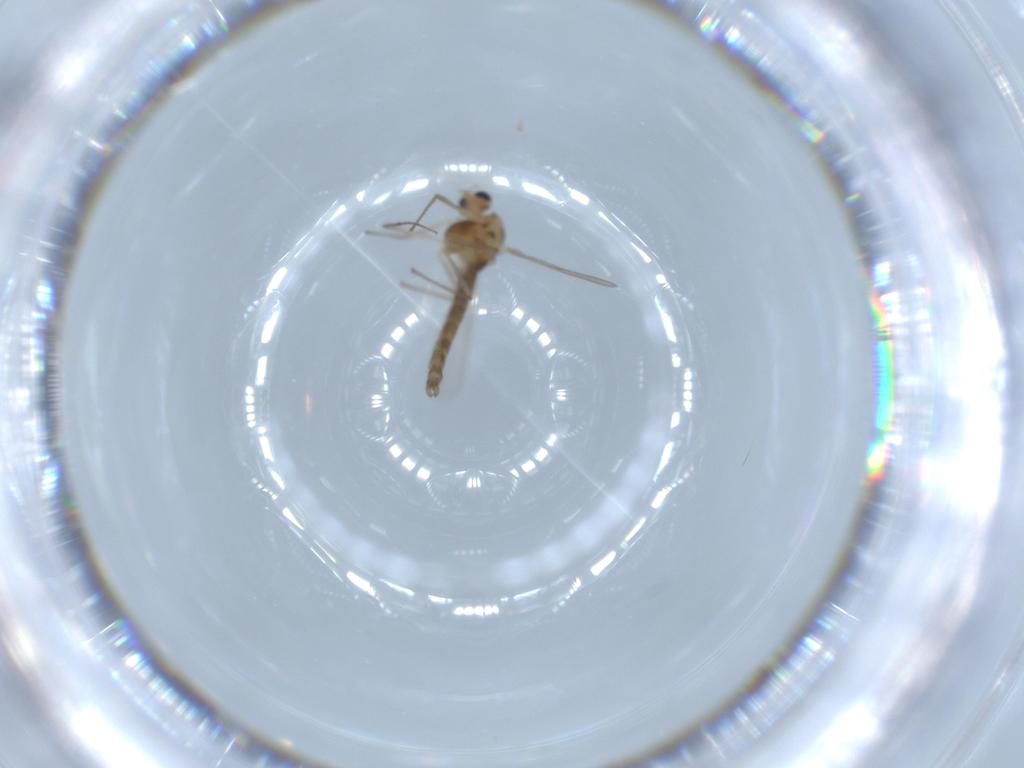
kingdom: Animalia
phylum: Arthropoda
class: Insecta
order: Diptera
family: Chironomidae
